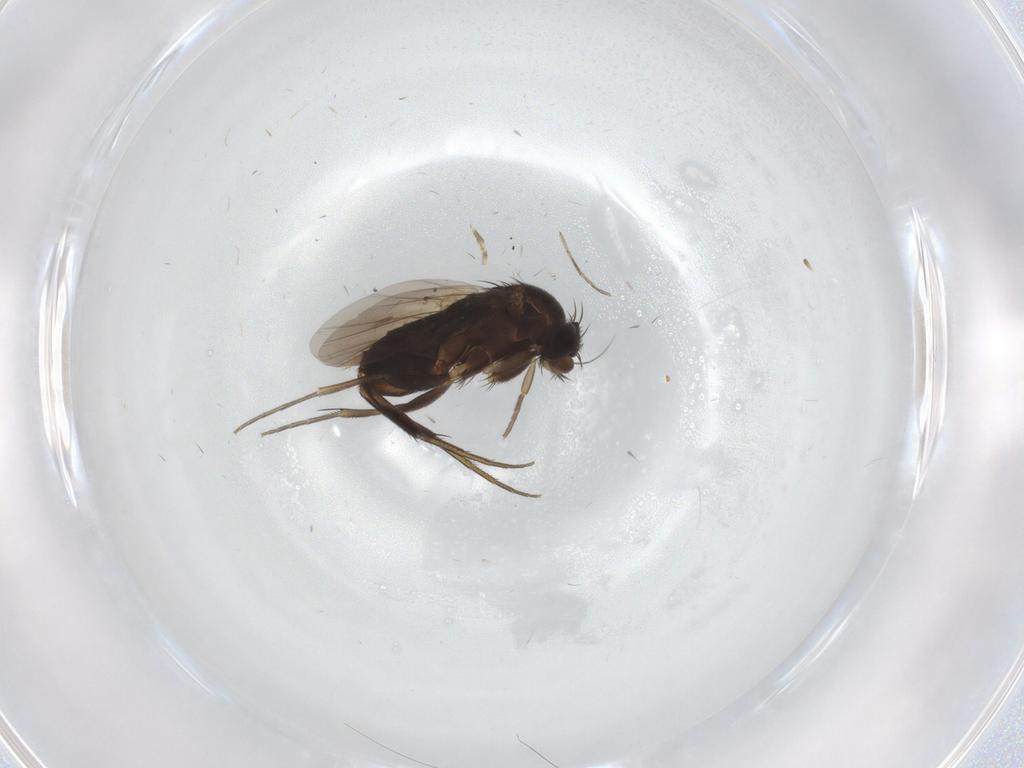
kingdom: Animalia
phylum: Arthropoda
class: Insecta
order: Diptera
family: Phoridae
